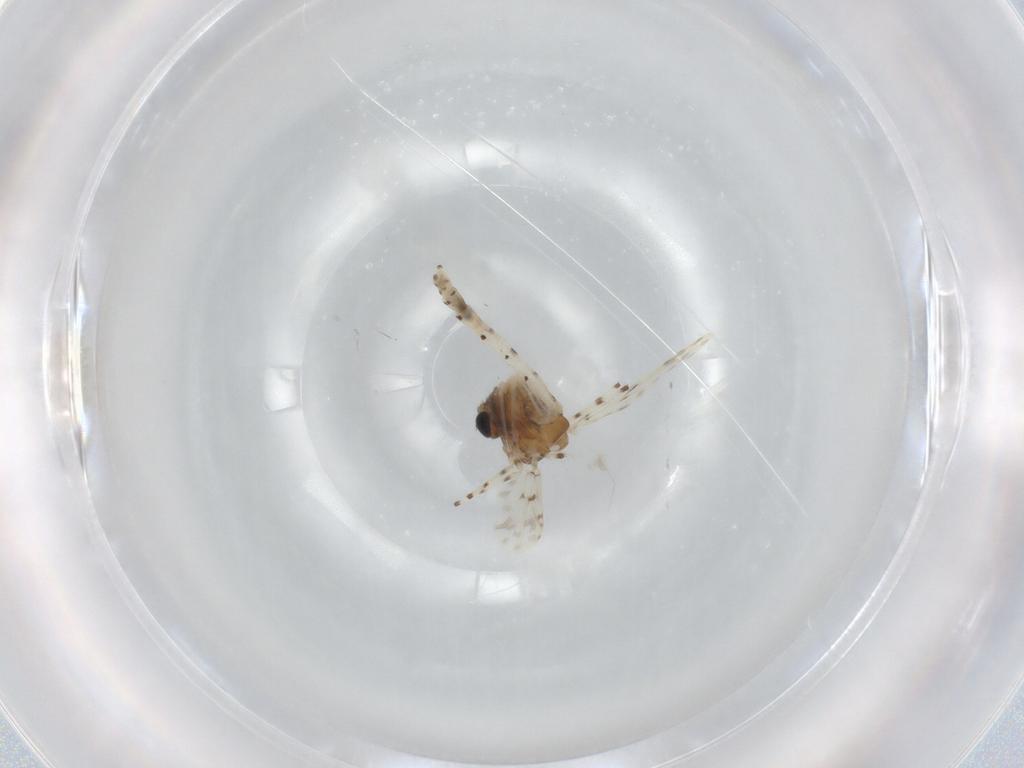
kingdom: Animalia
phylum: Arthropoda
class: Insecta
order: Diptera
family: Chironomidae
